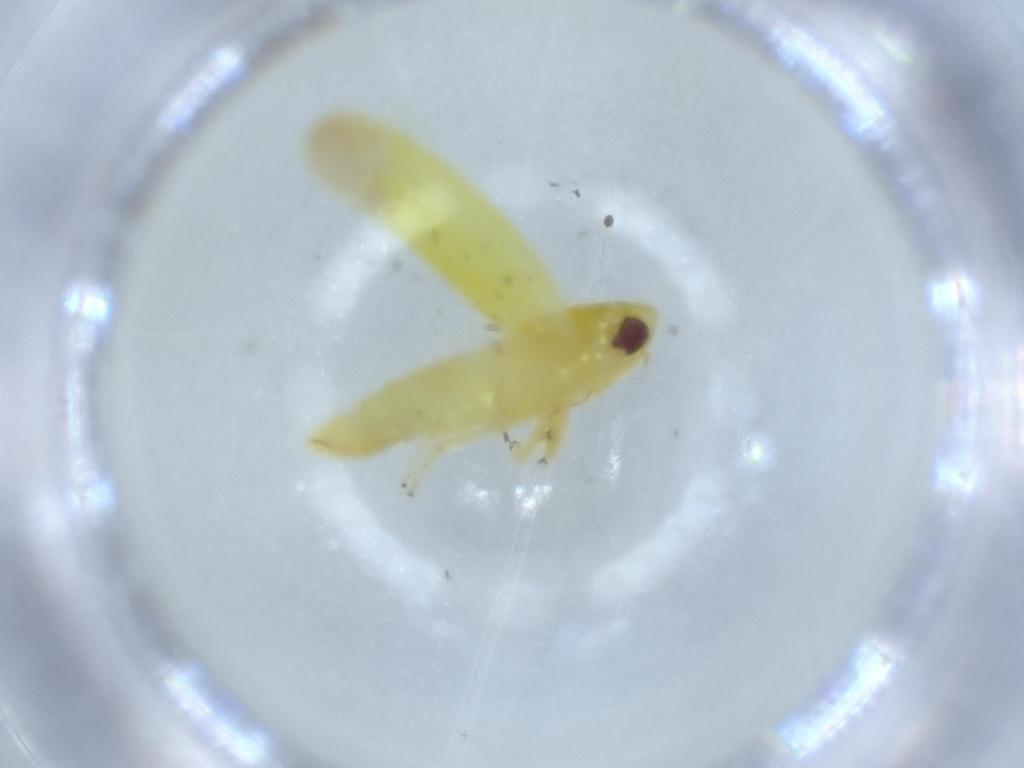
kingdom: Animalia
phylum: Arthropoda
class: Insecta
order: Hemiptera
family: Cicadellidae
